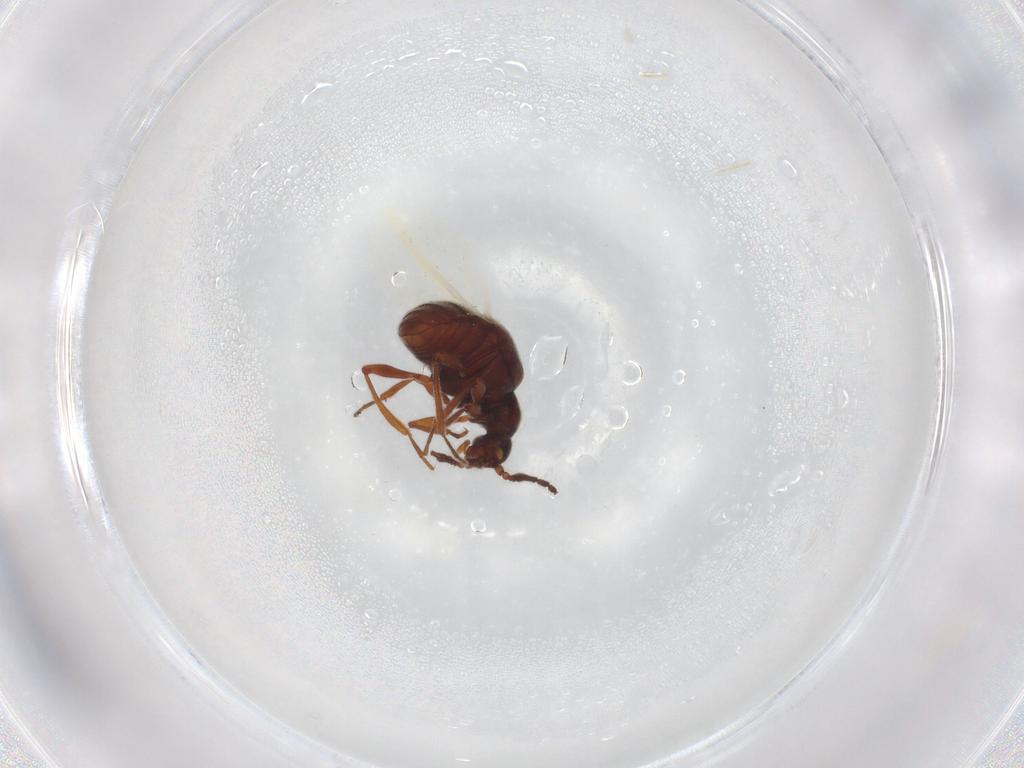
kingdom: Animalia
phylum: Arthropoda
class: Insecta
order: Coleoptera
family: Staphylinidae
